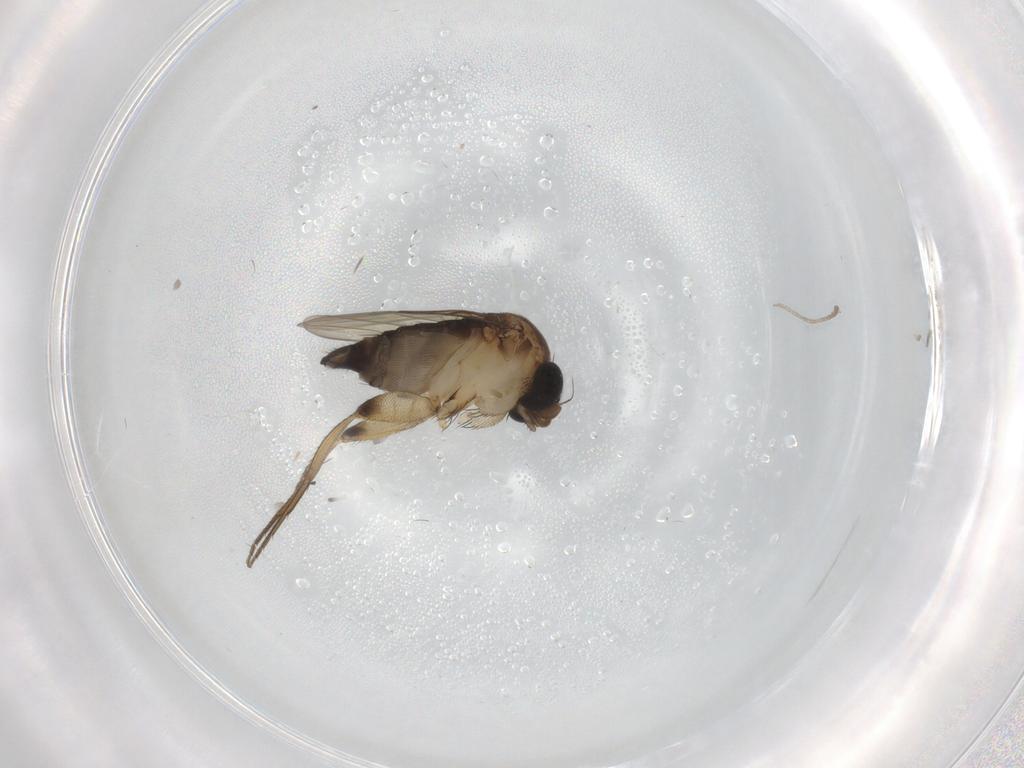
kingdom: Animalia
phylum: Arthropoda
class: Insecta
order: Diptera
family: Phoridae
